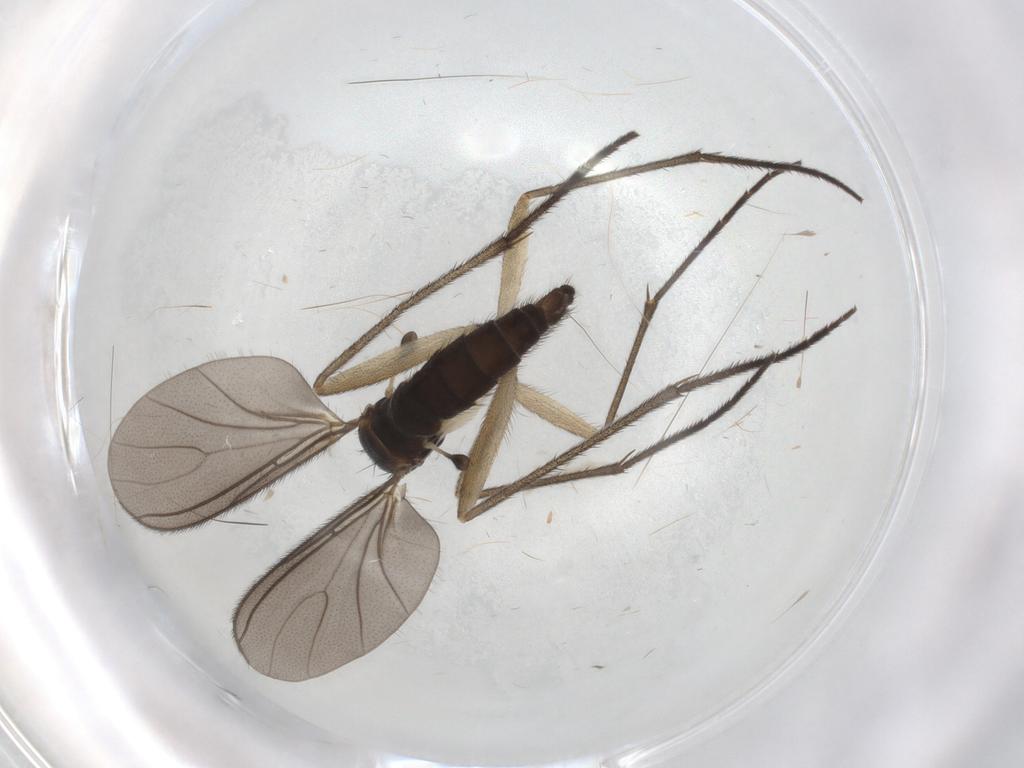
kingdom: Animalia
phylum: Arthropoda
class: Insecta
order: Diptera
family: Sciaridae
